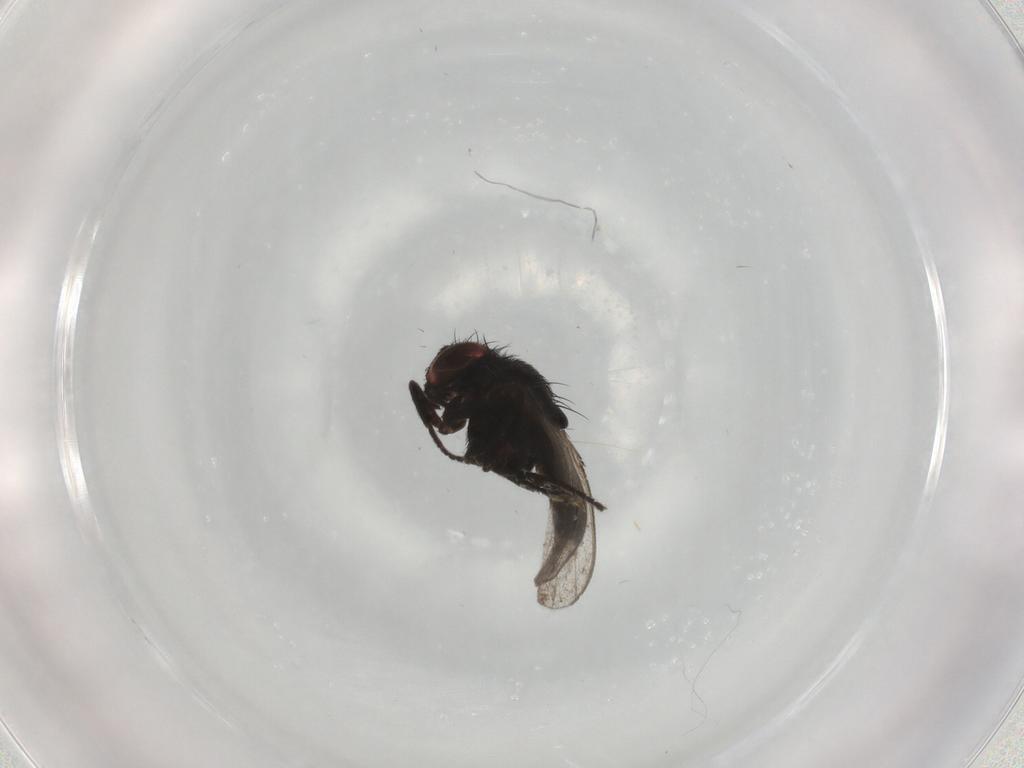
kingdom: Animalia
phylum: Arthropoda
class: Insecta
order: Diptera
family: Milichiidae
